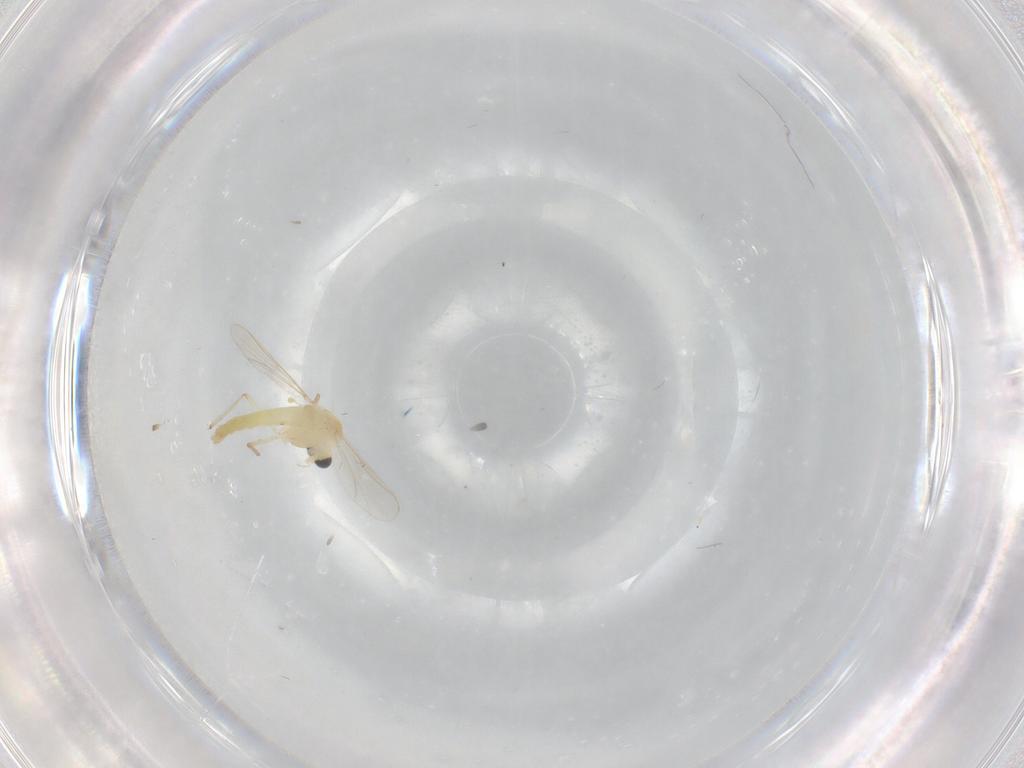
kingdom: Animalia
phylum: Arthropoda
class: Insecta
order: Diptera
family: Chironomidae
